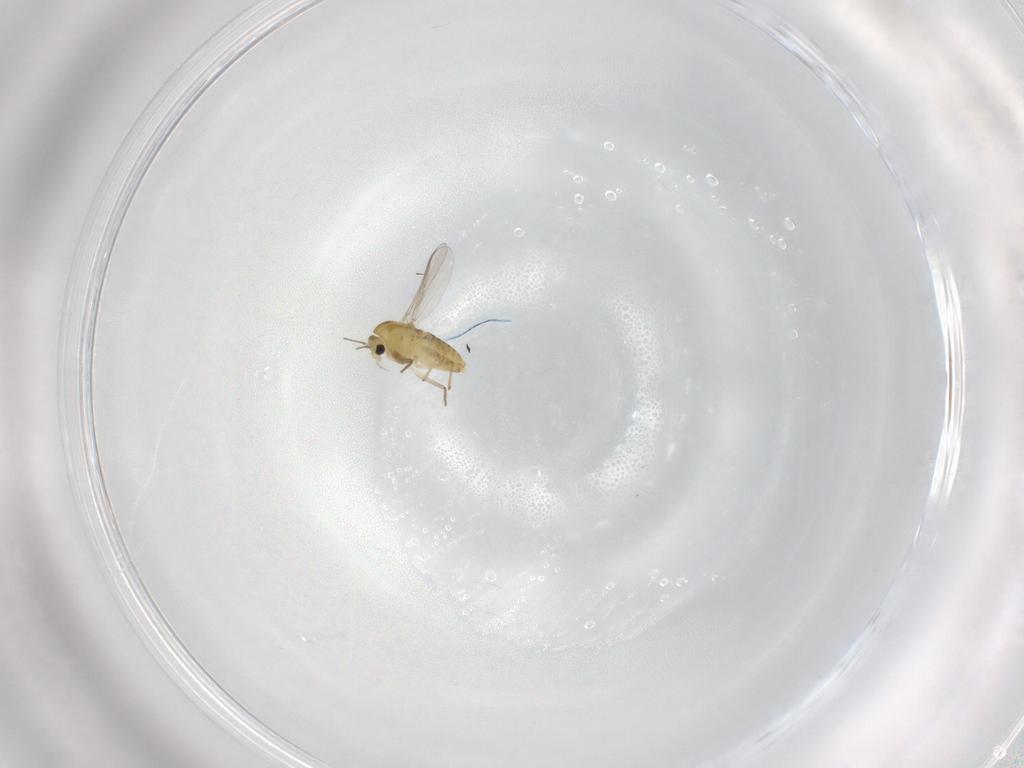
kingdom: Animalia
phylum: Arthropoda
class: Insecta
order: Diptera
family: Chironomidae
